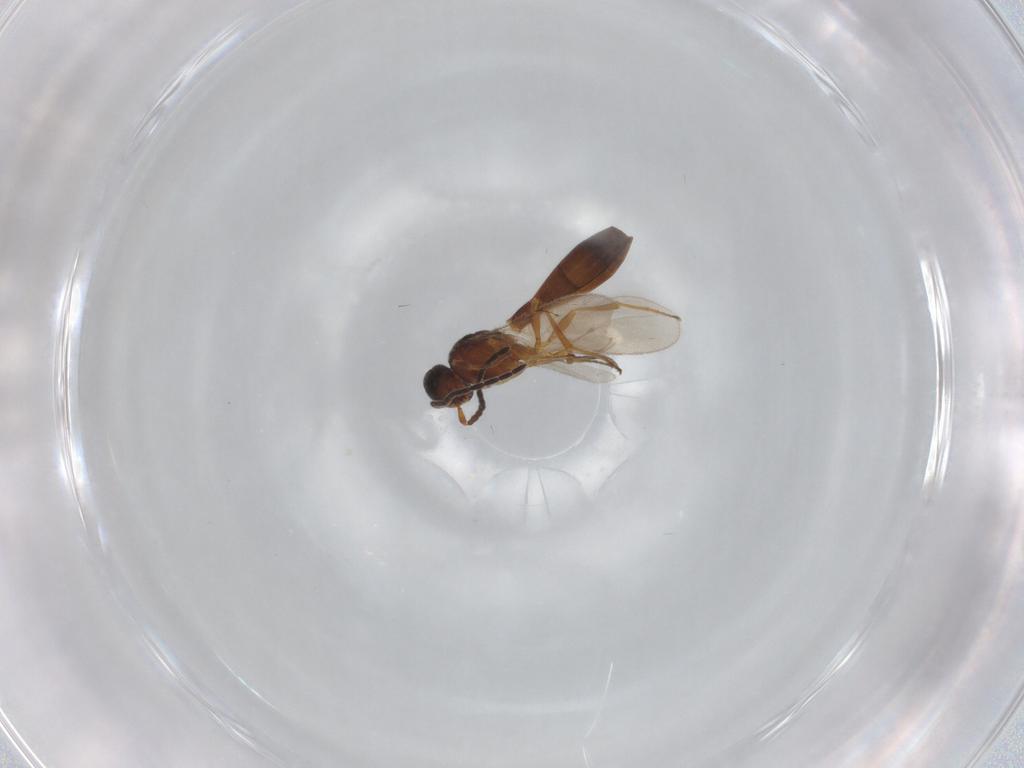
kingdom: Animalia
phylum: Arthropoda
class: Insecta
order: Hymenoptera
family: Scelionidae
